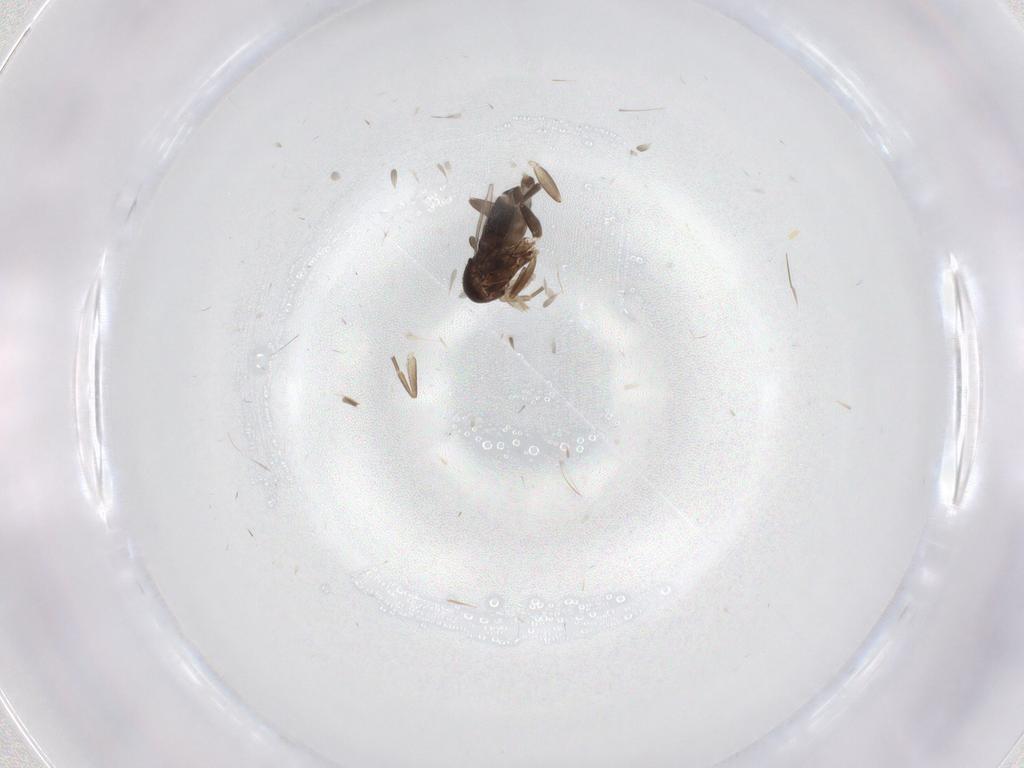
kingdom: Animalia
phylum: Arthropoda
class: Insecta
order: Diptera
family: Phoridae
